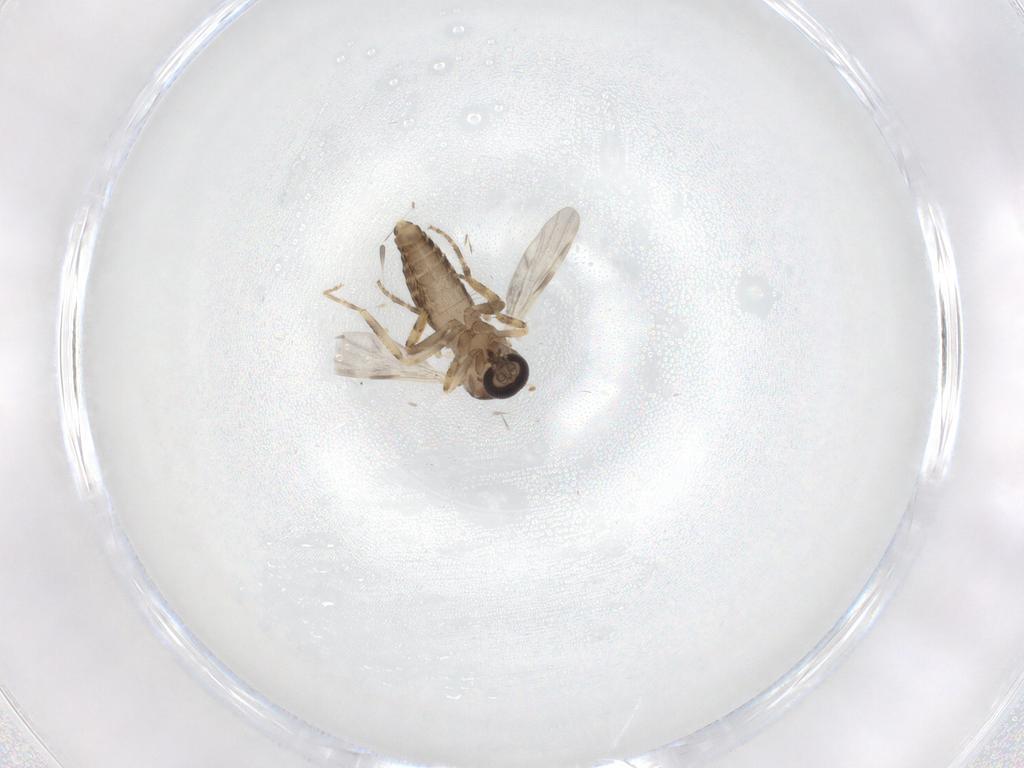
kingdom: Animalia
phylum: Arthropoda
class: Insecta
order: Diptera
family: Ceratopogonidae
